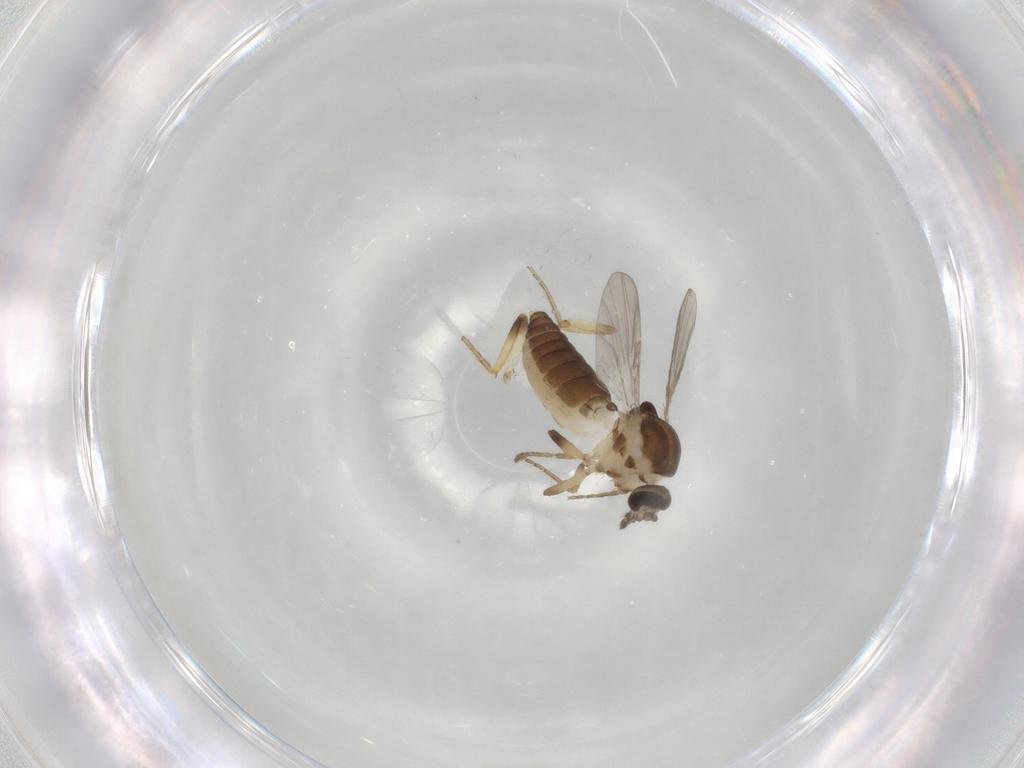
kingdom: Animalia
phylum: Arthropoda
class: Insecta
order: Diptera
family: Ceratopogonidae
